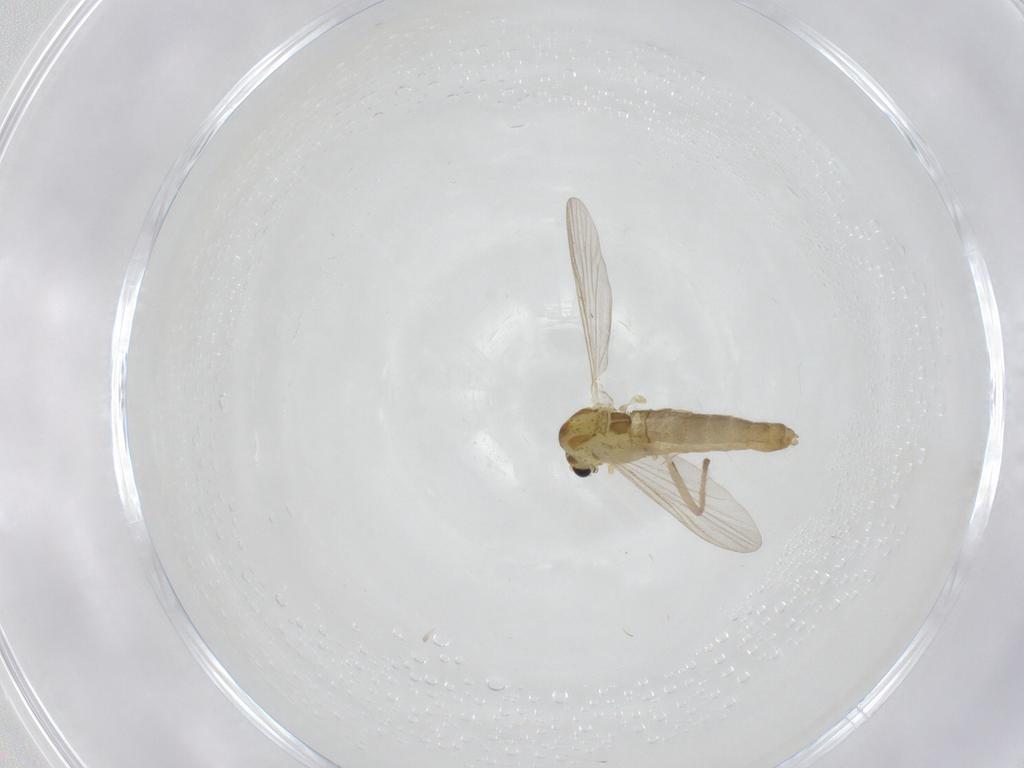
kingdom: Animalia
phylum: Arthropoda
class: Insecta
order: Diptera
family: Chironomidae
